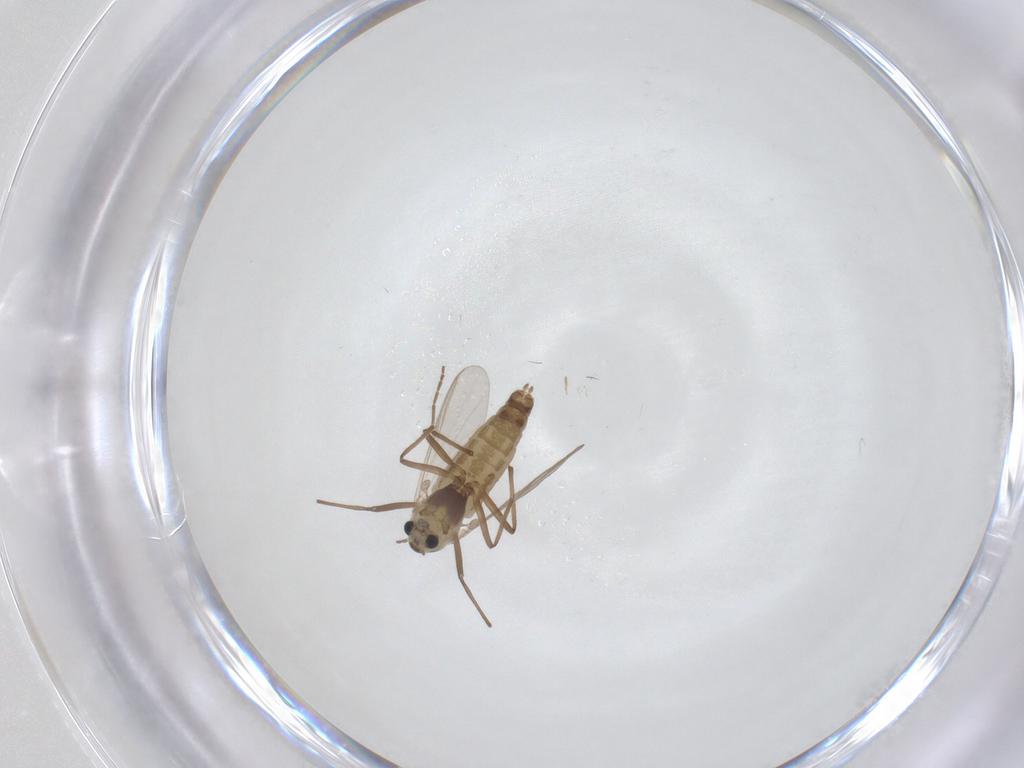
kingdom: Animalia
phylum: Arthropoda
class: Insecta
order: Diptera
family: Chironomidae
